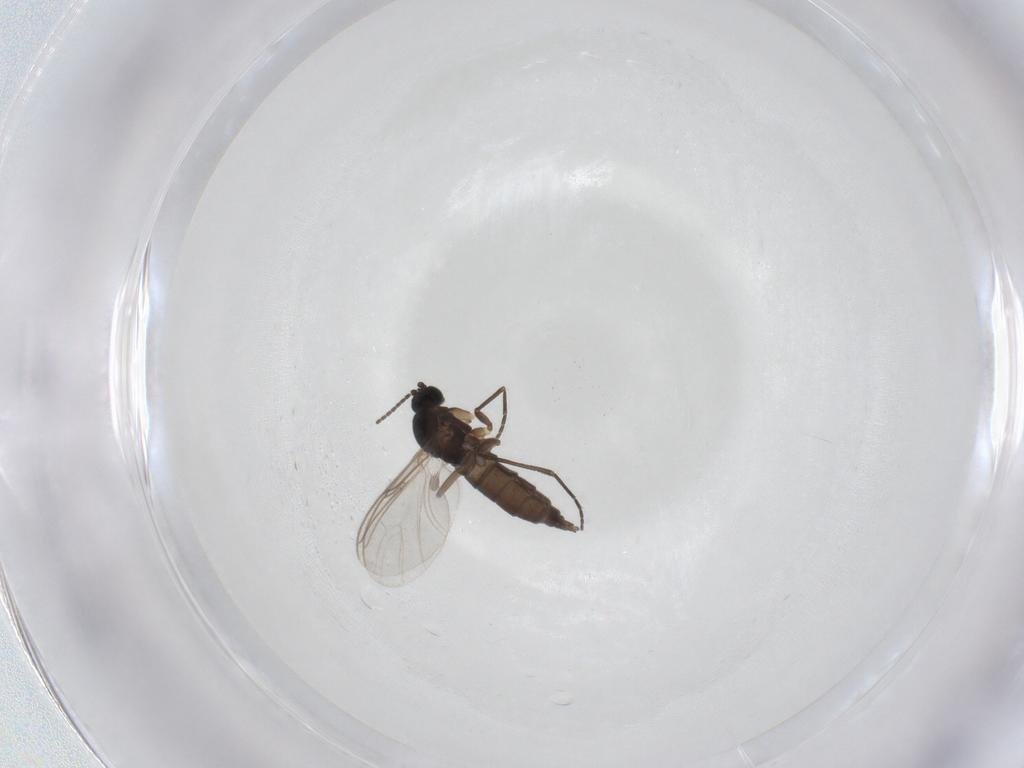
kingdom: Animalia
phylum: Arthropoda
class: Insecta
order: Diptera
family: Sciaridae
